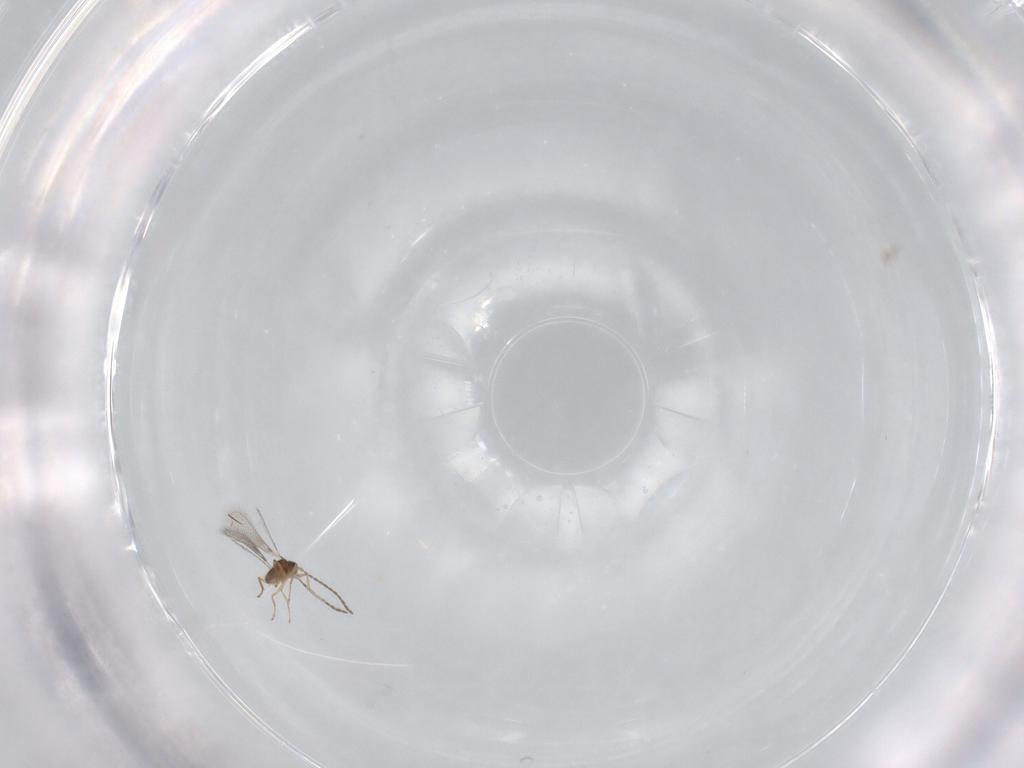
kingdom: Animalia
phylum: Arthropoda
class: Insecta
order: Hymenoptera
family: Mymaridae
